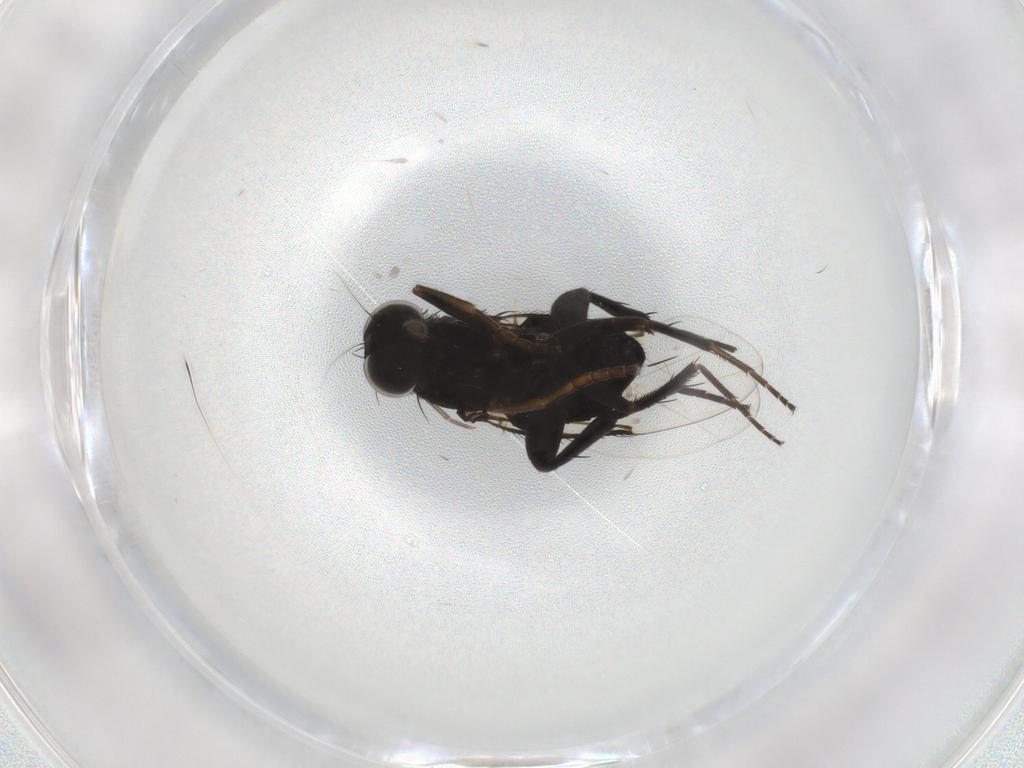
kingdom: Animalia
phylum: Arthropoda
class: Insecta
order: Diptera
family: Phoridae
